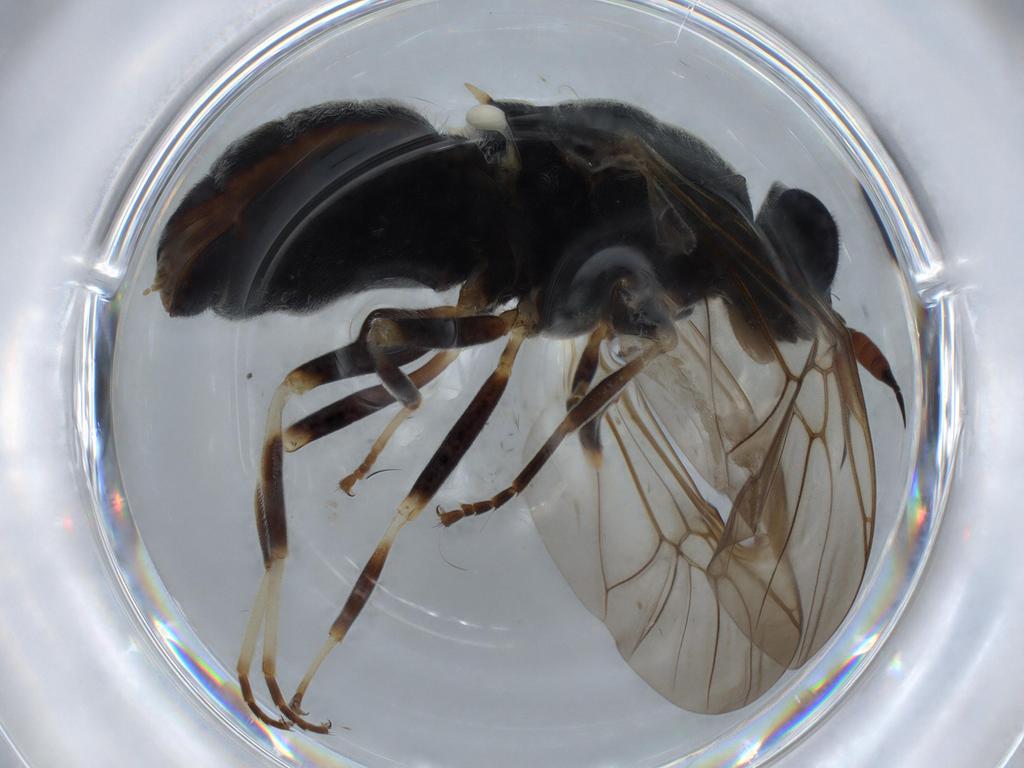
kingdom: Animalia
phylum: Arthropoda
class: Insecta
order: Diptera
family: Stratiomyidae
